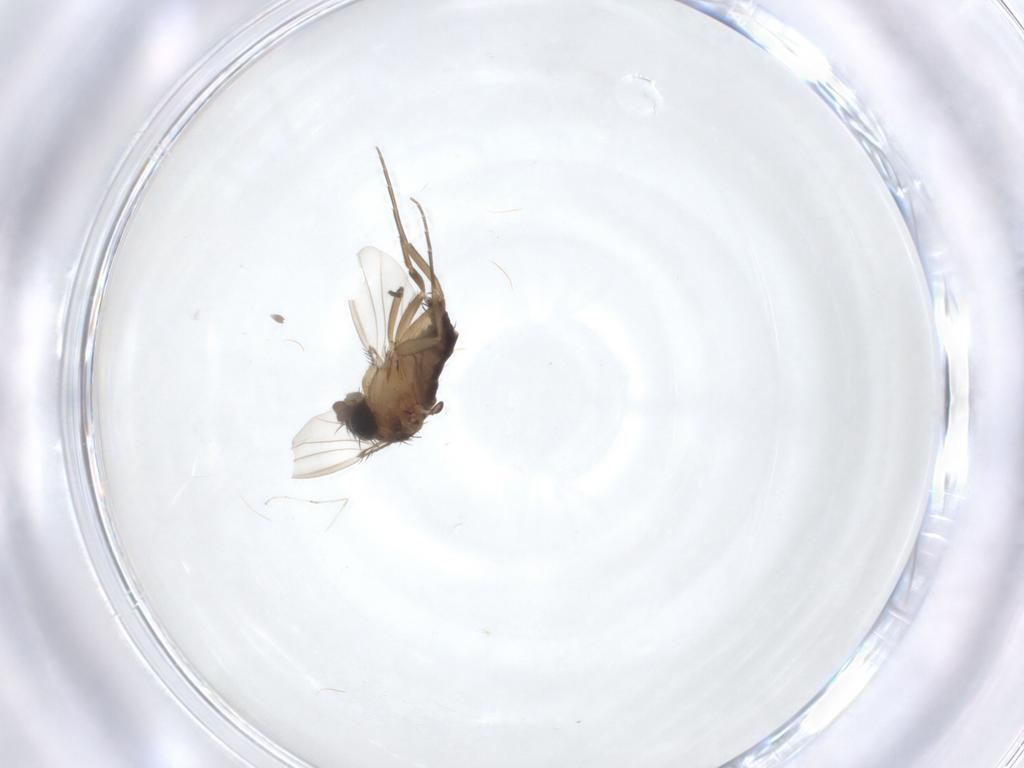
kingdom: Animalia
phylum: Arthropoda
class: Insecta
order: Diptera
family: Cecidomyiidae
